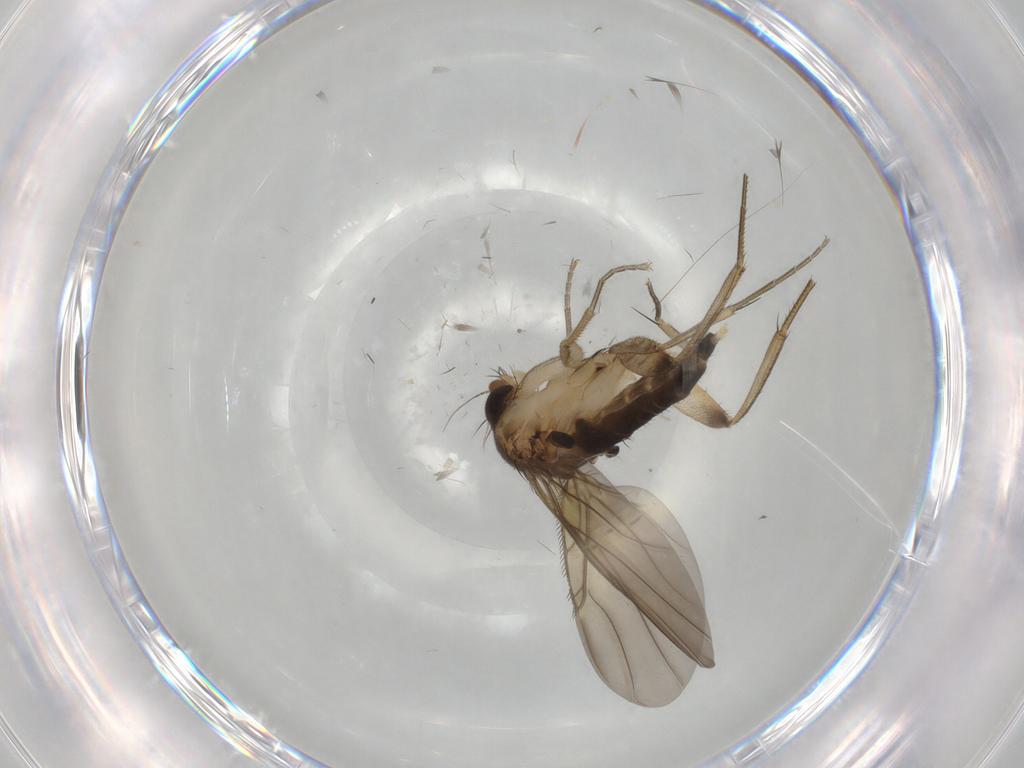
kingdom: Animalia
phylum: Arthropoda
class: Insecta
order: Diptera
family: Phoridae
